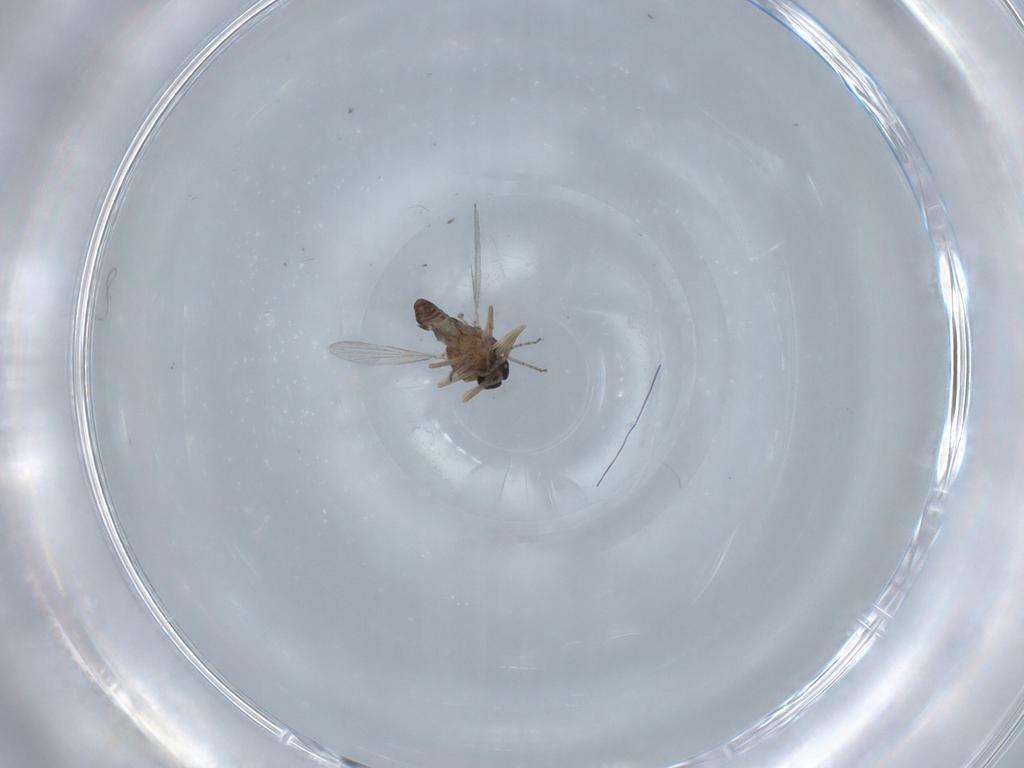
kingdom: Animalia
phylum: Arthropoda
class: Insecta
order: Diptera
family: Ceratopogonidae
